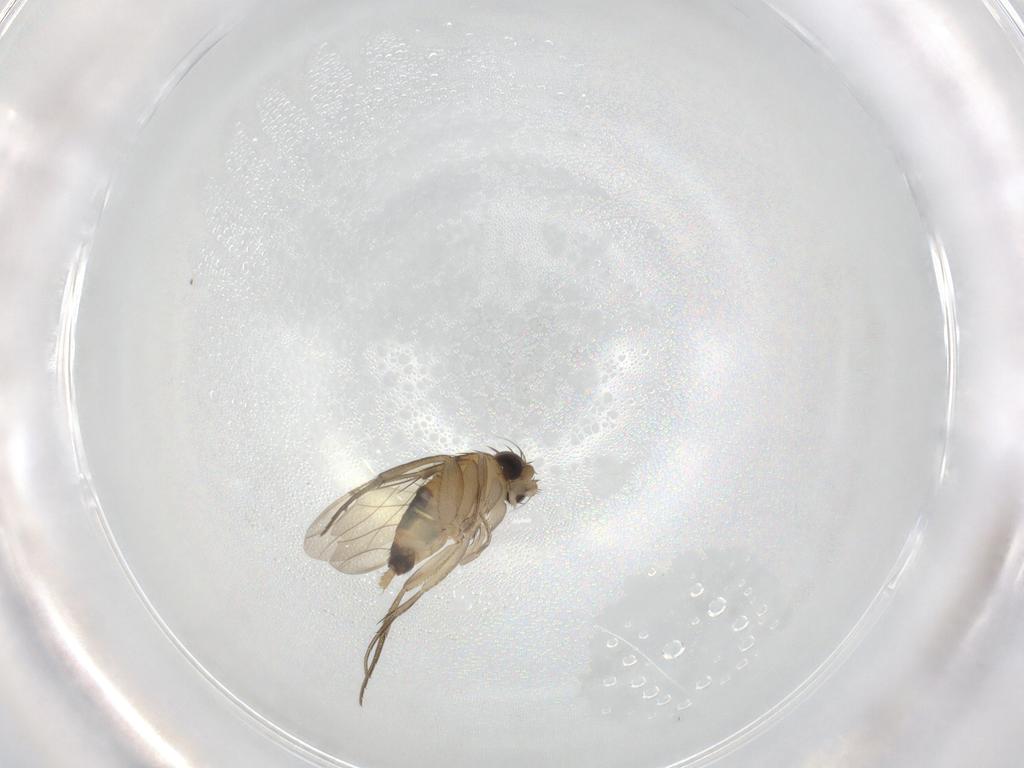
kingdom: Animalia
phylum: Arthropoda
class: Insecta
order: Diptera
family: Phoridae
